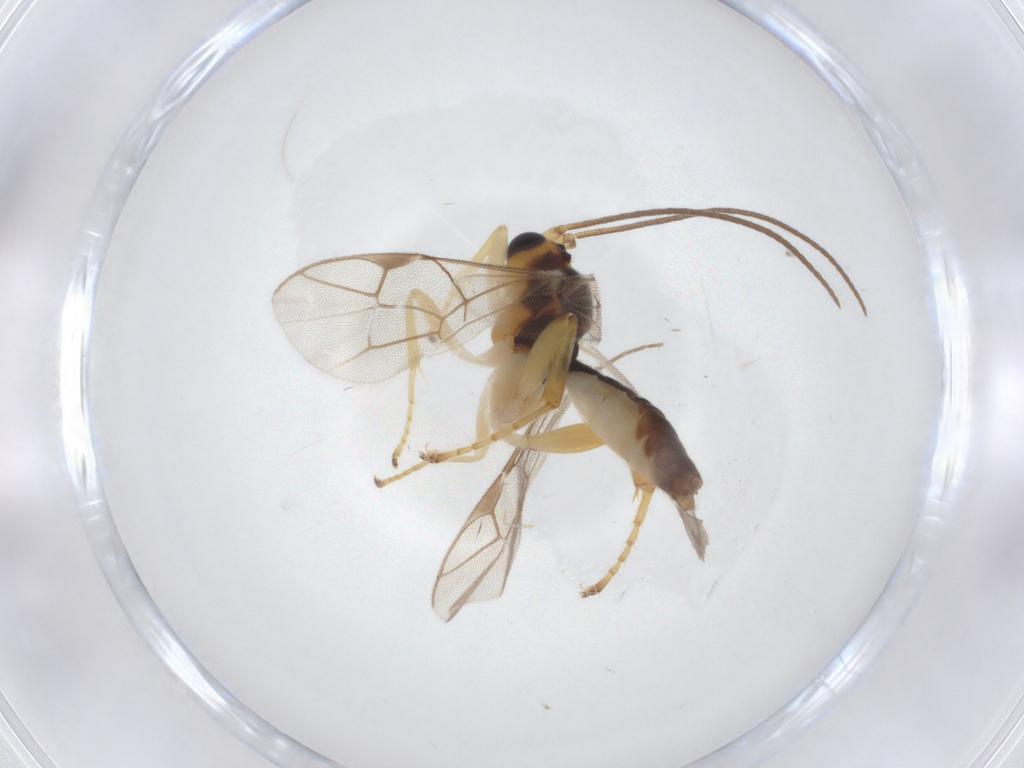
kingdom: Animalia
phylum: Arthropoda
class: Insecta
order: Hymenoptera
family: Ichneumonidae
